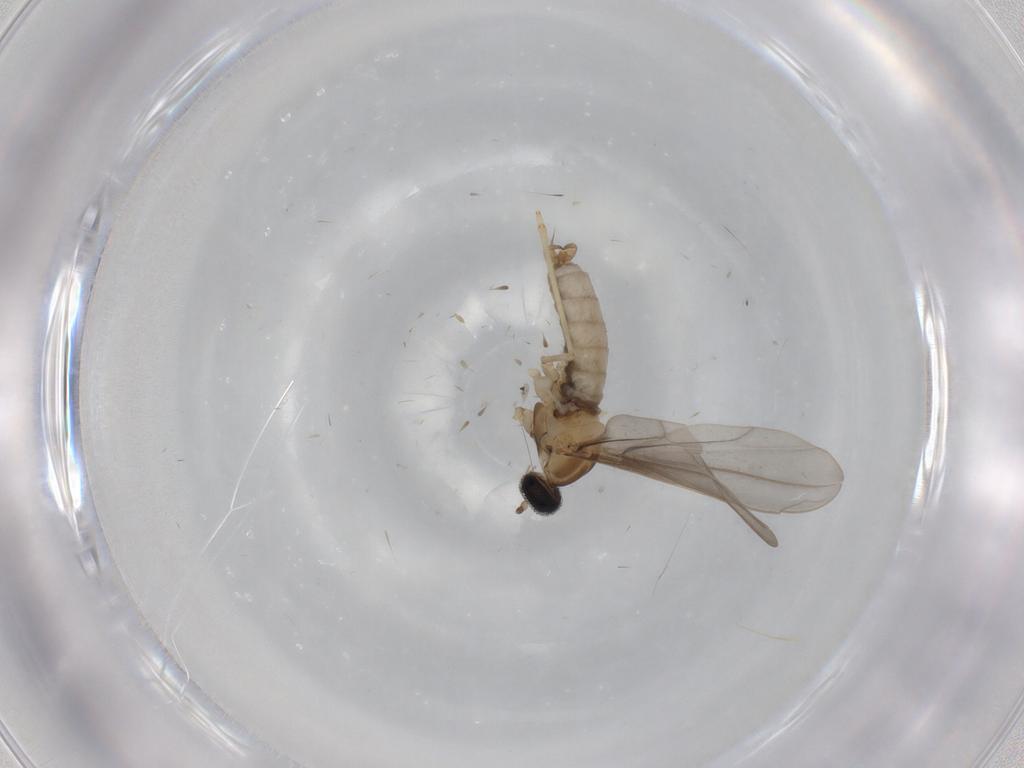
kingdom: Animalia
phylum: Arthropoda
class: Insecta
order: Diptera
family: Cecidomyiidae
